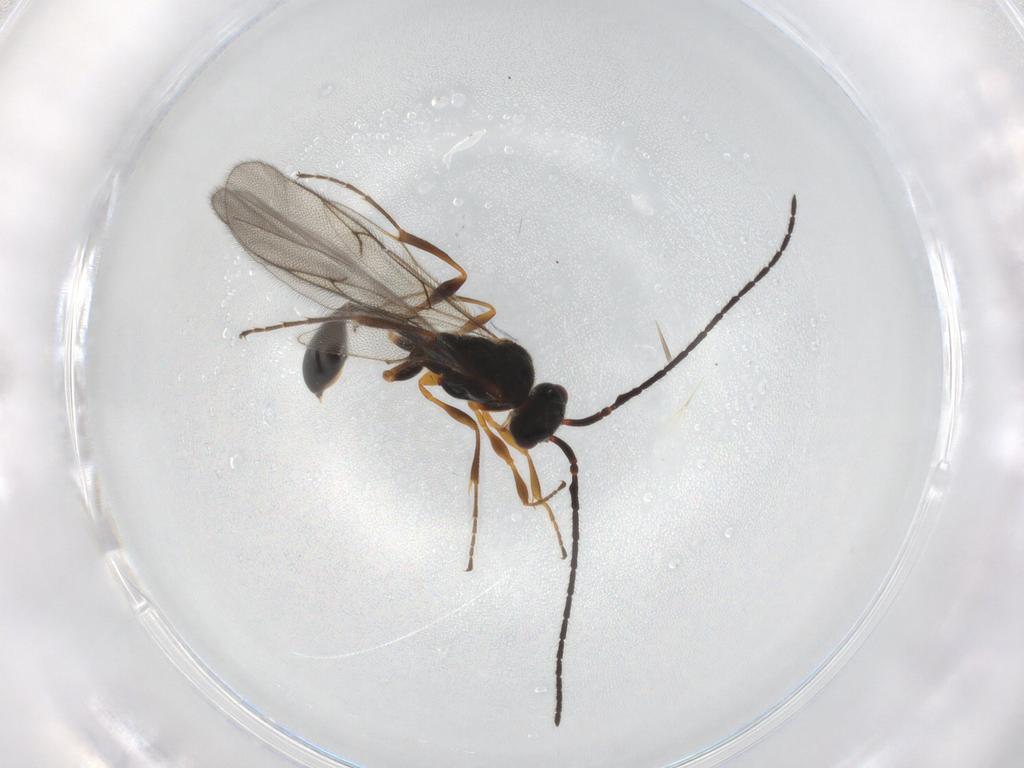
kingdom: Animalia
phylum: Arthropoda
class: Insecta
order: Hymenoptera
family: Diapriidae
